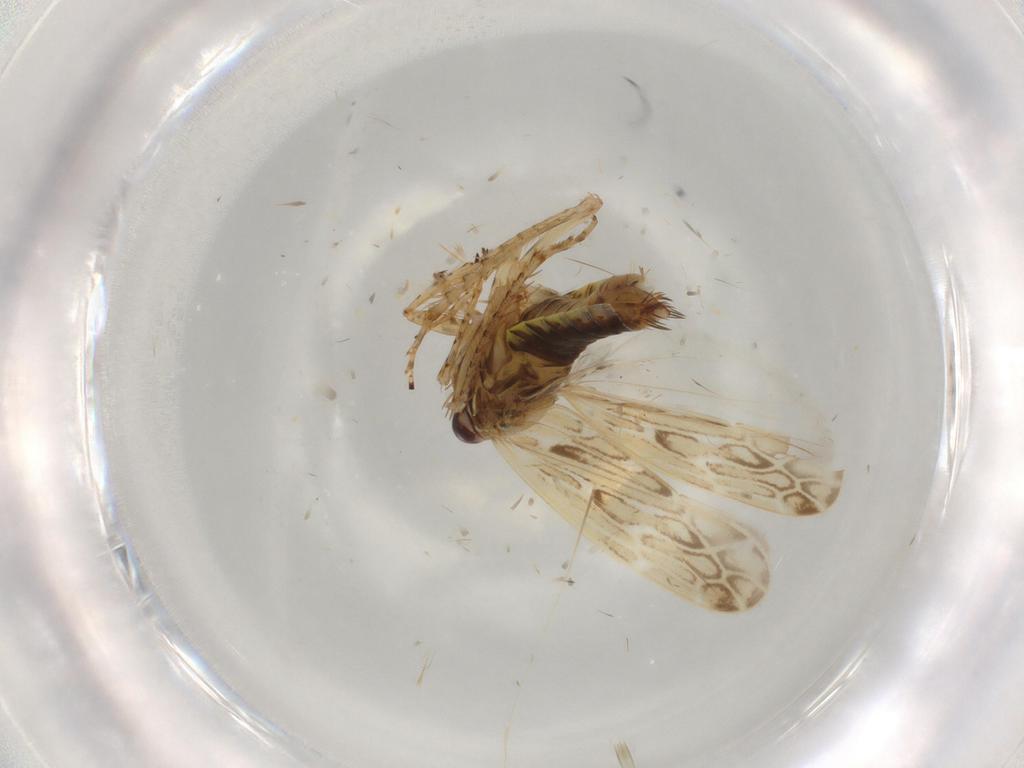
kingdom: Animalia
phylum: Arthropoda
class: Insecta
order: Hemiptera
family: Cicadellidae
